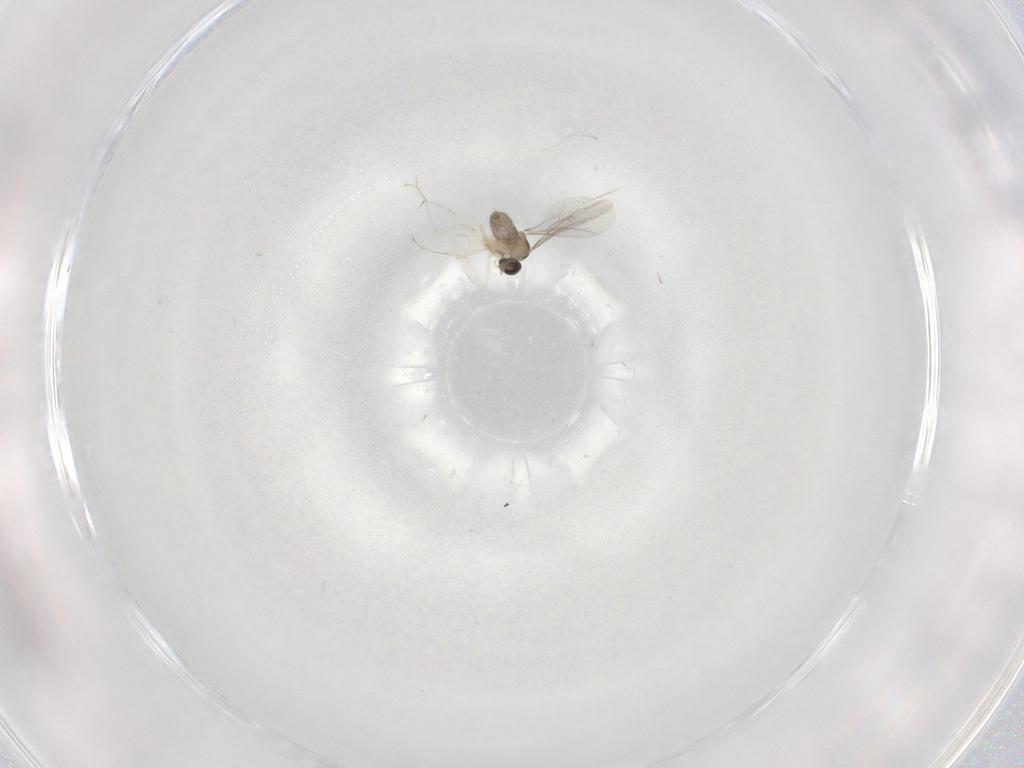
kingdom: Animalia
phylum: Arthropoda
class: Insecta
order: Diptera
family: Cecidomyiidae
